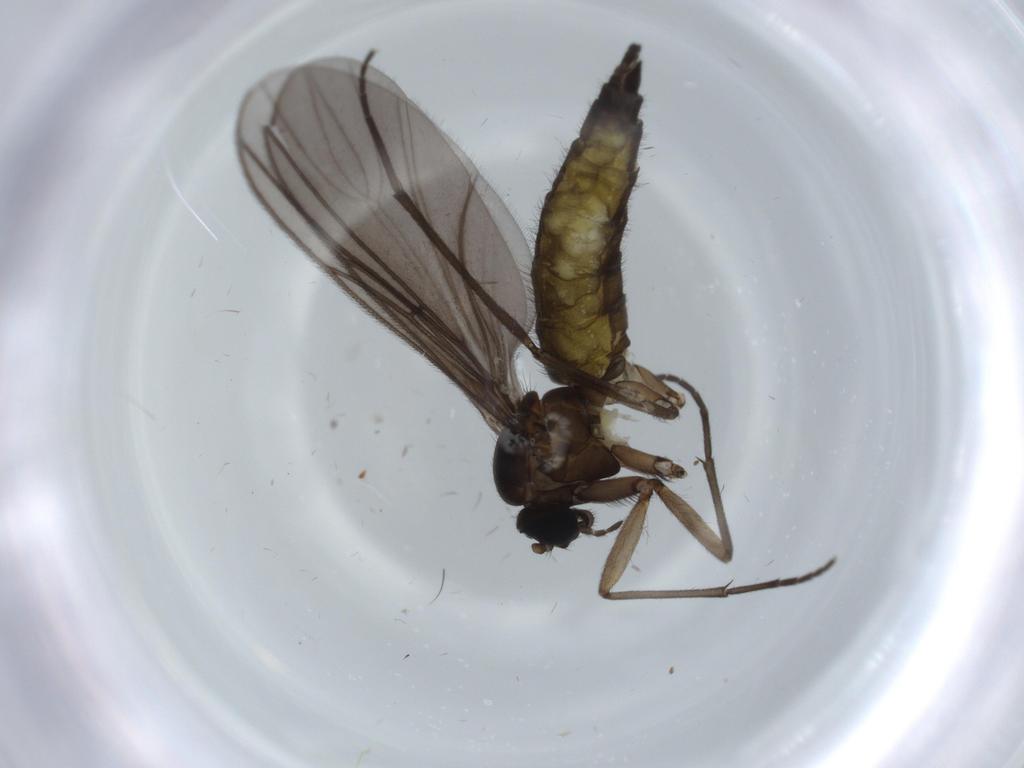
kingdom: Animalia
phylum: Arthropoda
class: Insecta
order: Diptera
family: Sciaridae
